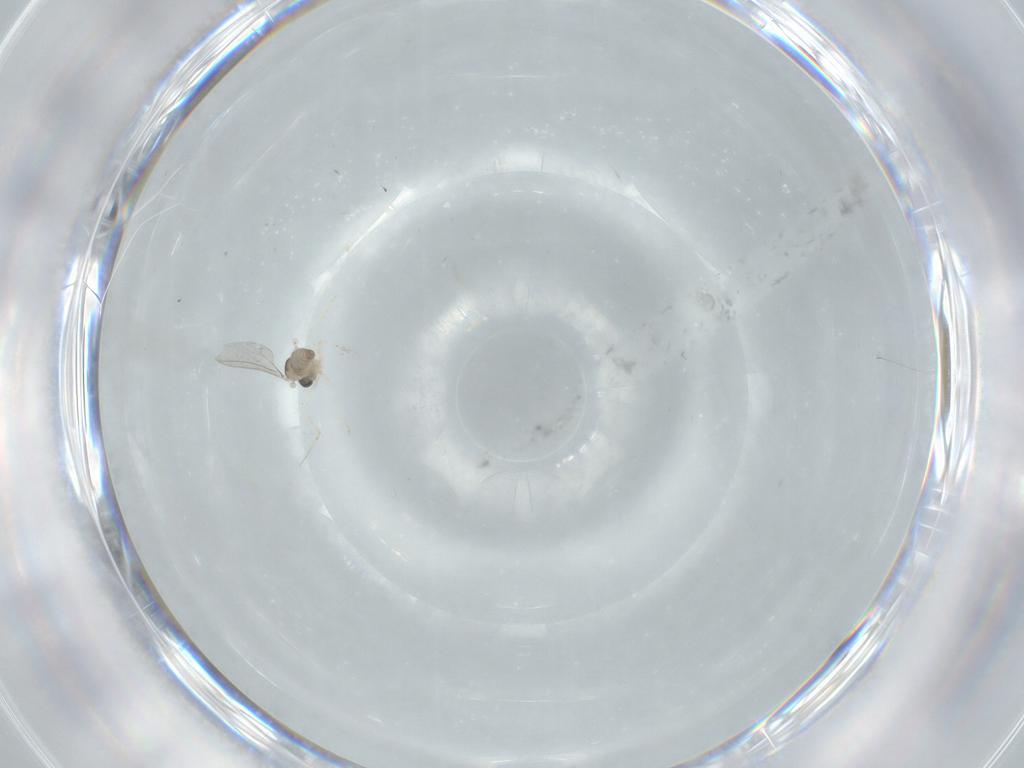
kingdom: Animalia
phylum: Arthropoda
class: Insecta
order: Diptera
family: Cecidomyiidae
